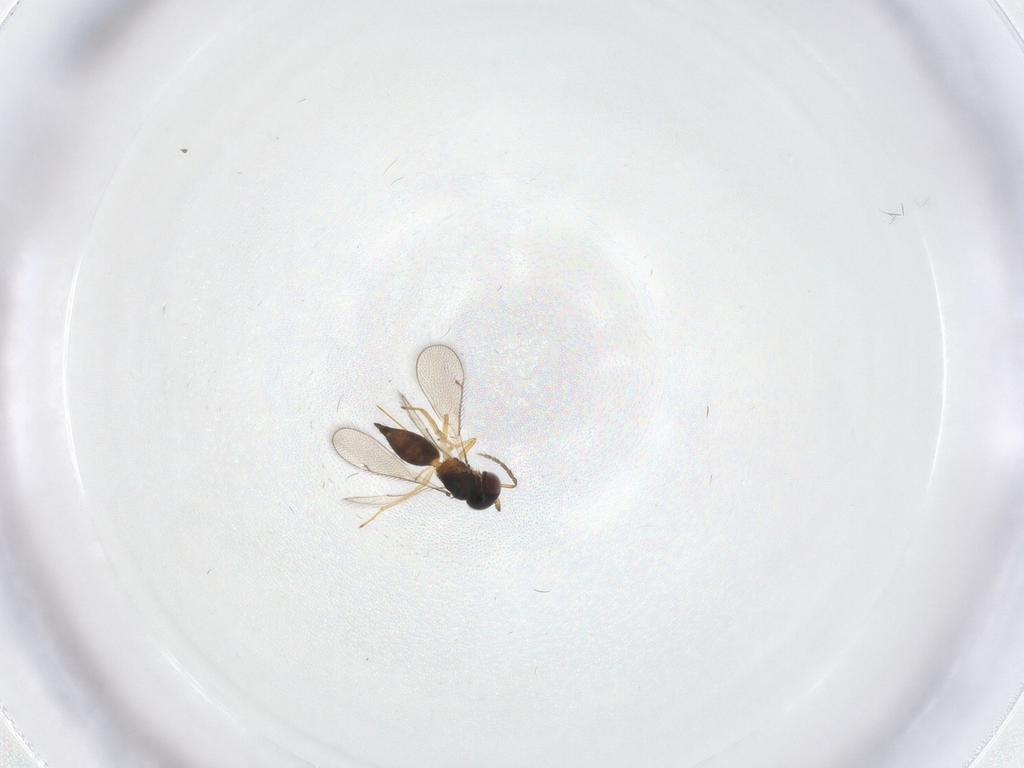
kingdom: Animalia
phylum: Arthropoda
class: Insecta
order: Hymenoptera
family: Eulophidae
